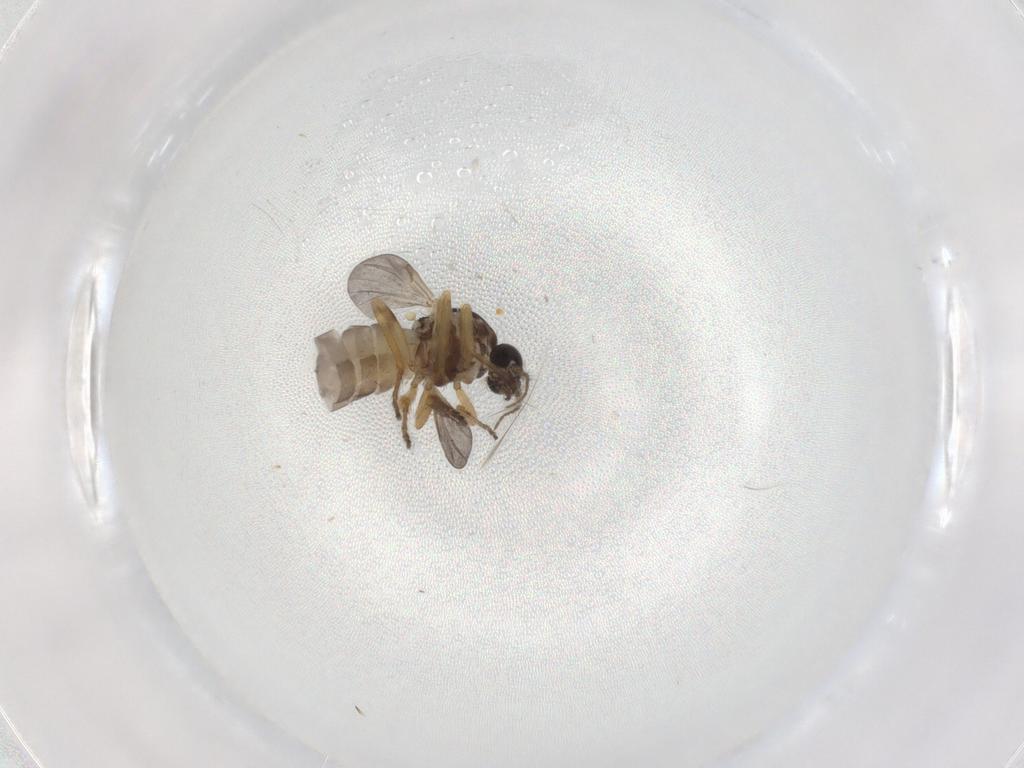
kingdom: Animalia
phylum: Arthropoda
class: Insecta
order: Diptera
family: Ceratopogonidae
